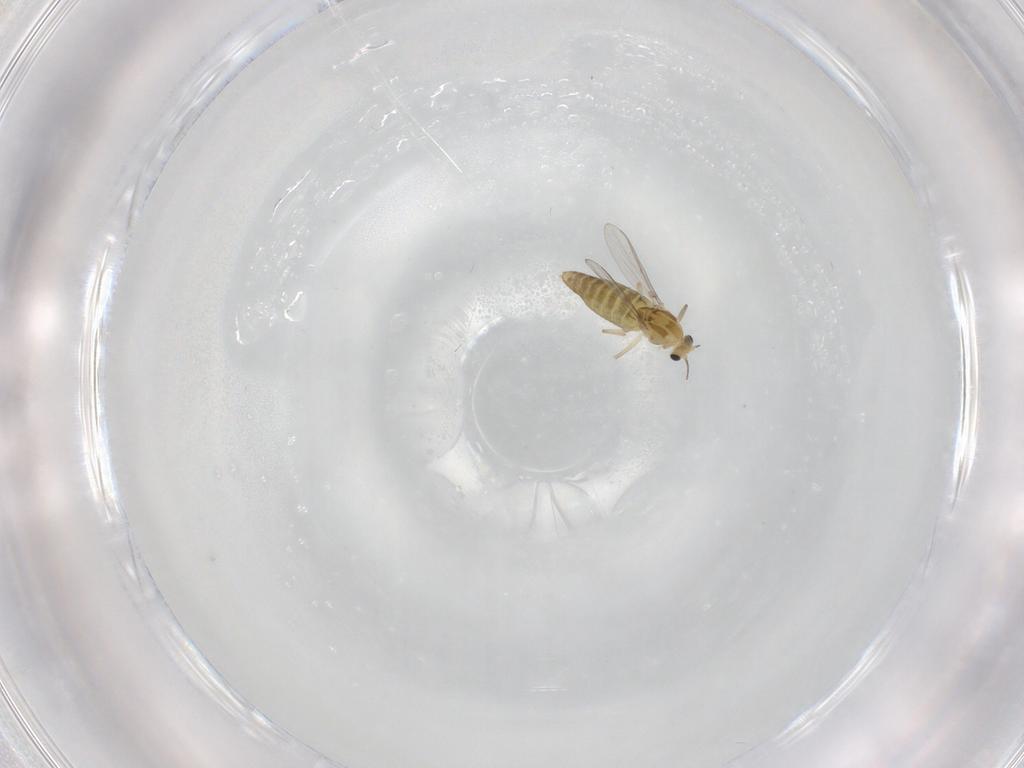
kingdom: Animalia
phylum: Arthropoda
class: Insecta
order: Diptera
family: Chironomidae
